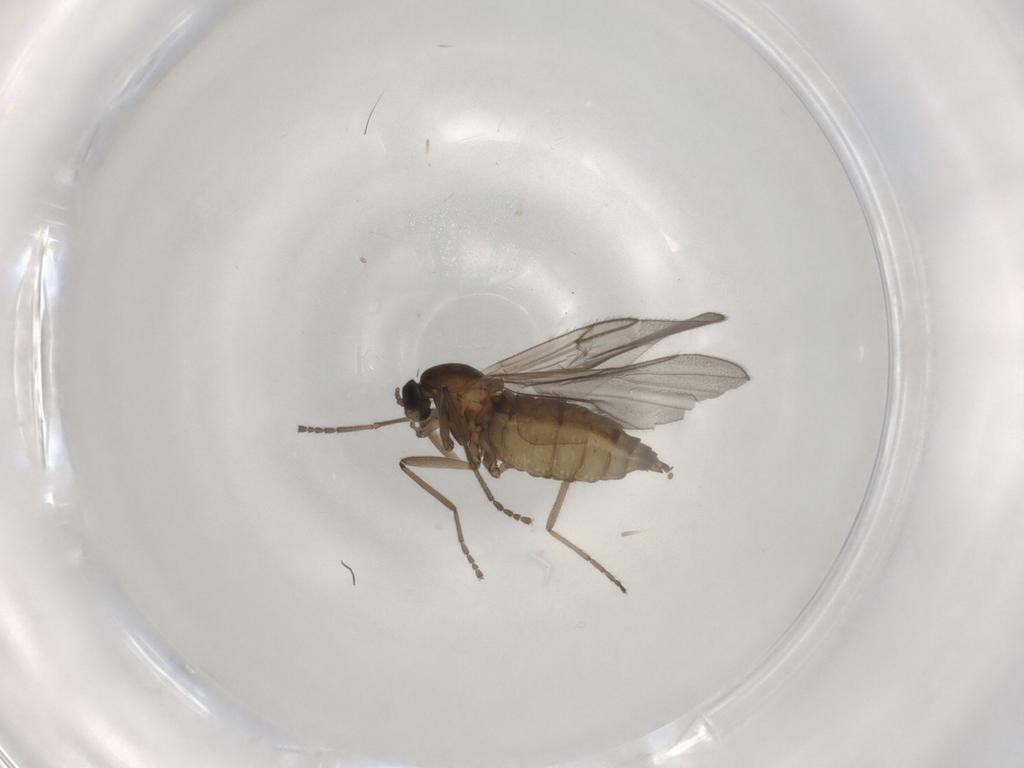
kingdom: Animalia
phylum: Arthropoda
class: Insecta
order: Diptera
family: Cecidomyiidae
